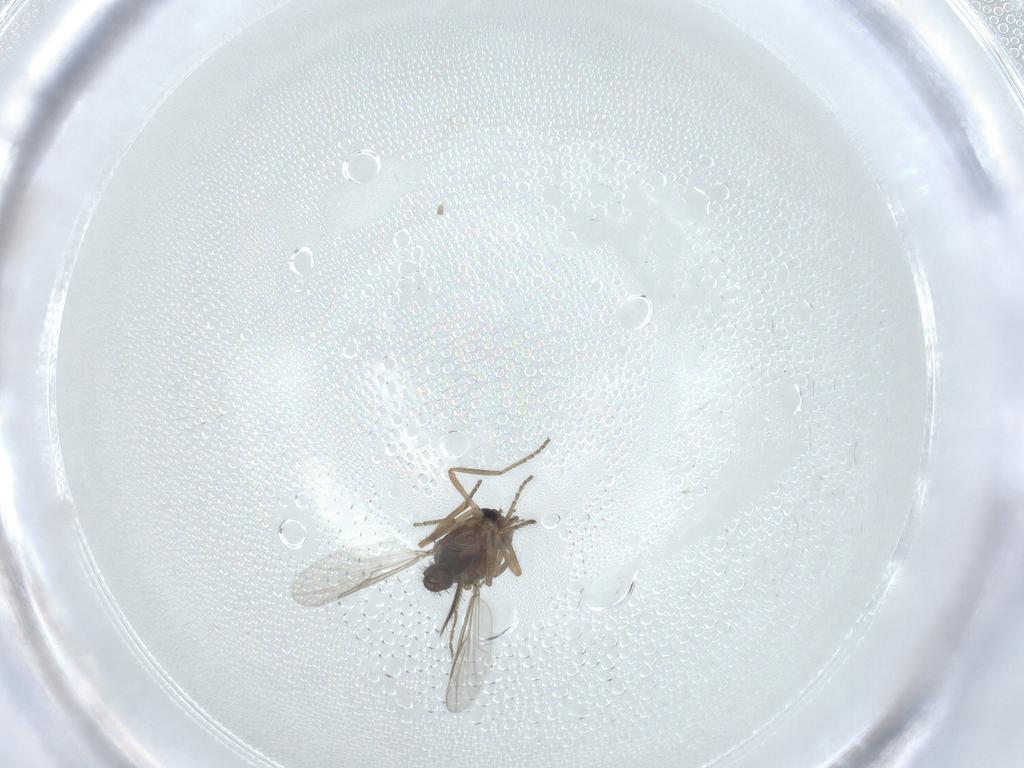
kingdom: Animalia
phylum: Arthropoda
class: Insecta
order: Diptera
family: Ceratopogonidae
